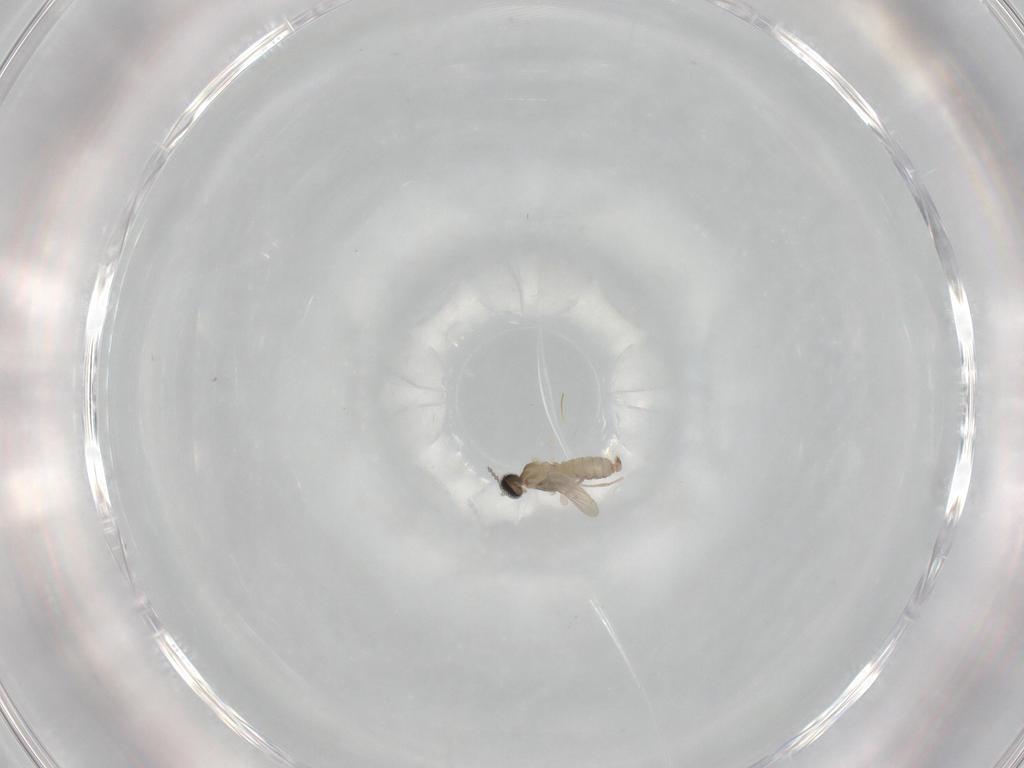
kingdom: Animalia
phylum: Arthropoda
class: Insecta
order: Diptera
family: Cecidomyiidae
